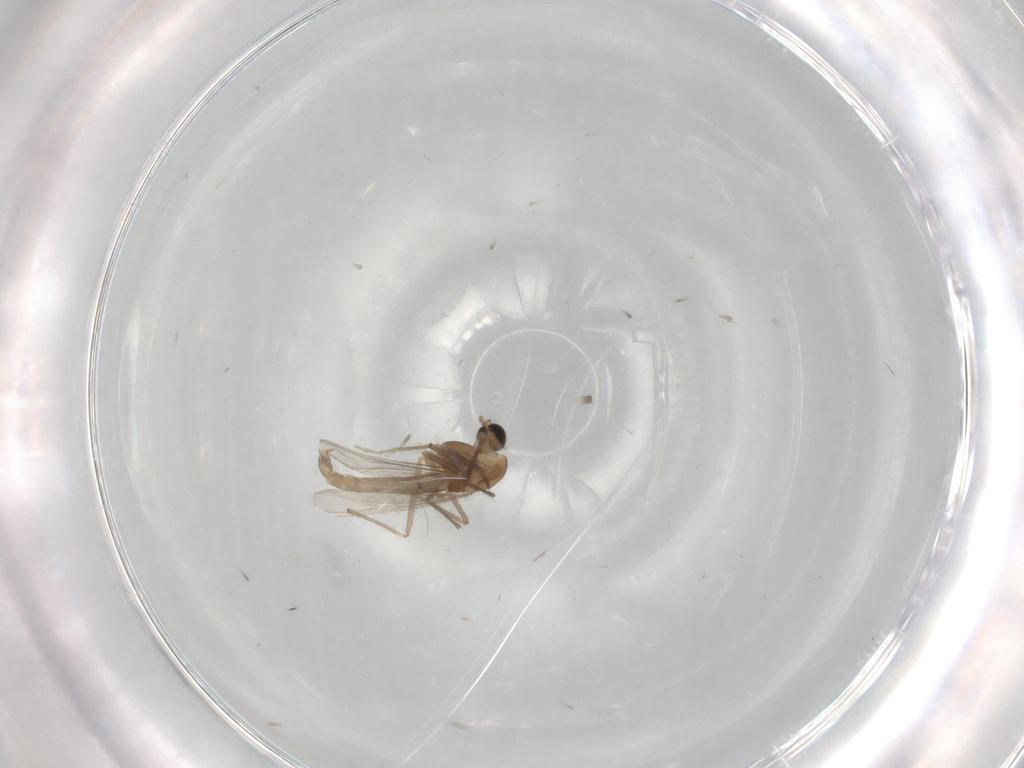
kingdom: Animalia
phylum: Arthropoda
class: Insecta
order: Diptera
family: Chironomidae
